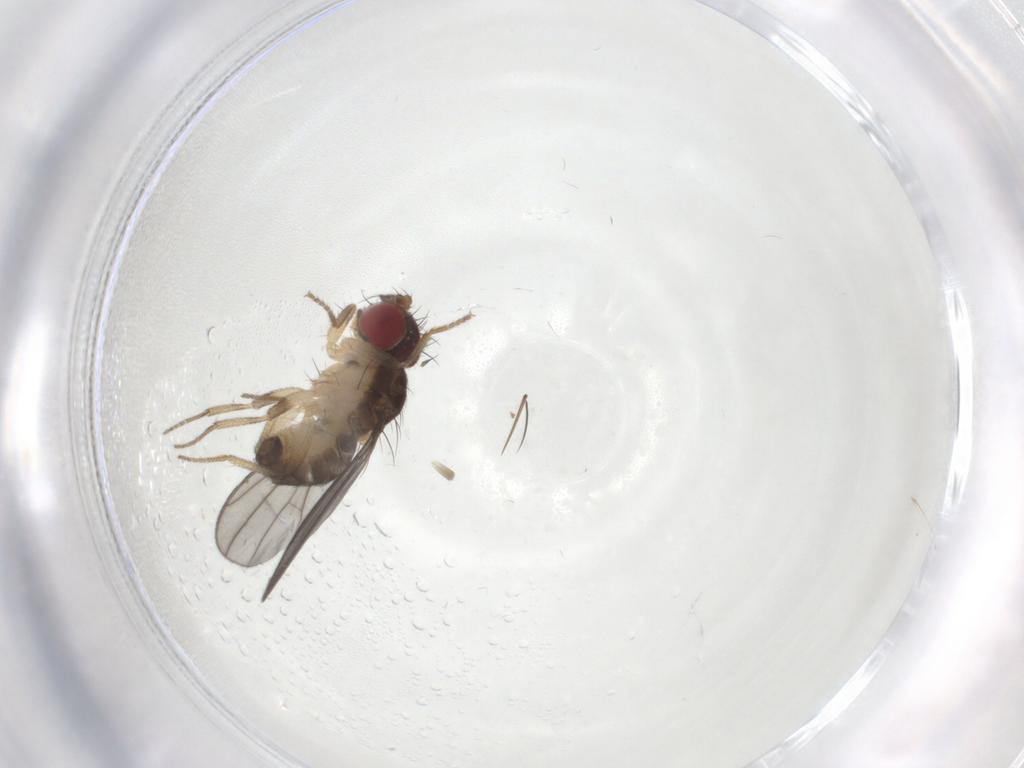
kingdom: Animalia
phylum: Arthropoda
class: Insecta
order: Diptera
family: Drosophilidae
